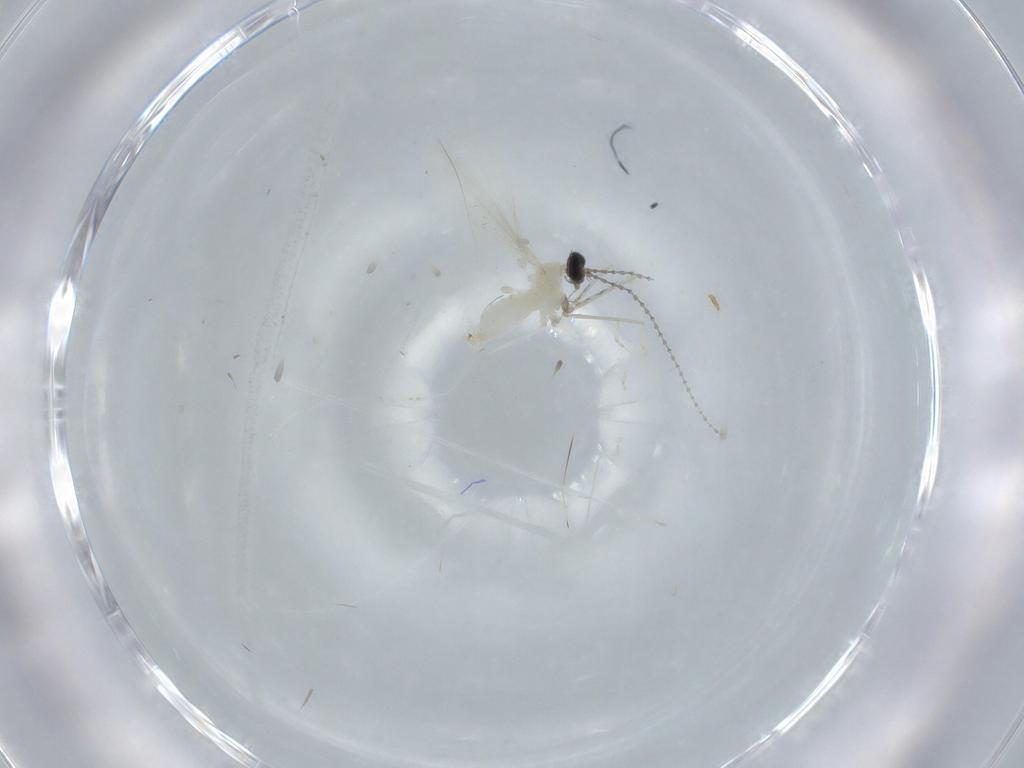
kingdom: Animalia
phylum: Arthropoda
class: Insecta
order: Diptera
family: Cecidomyiidae
